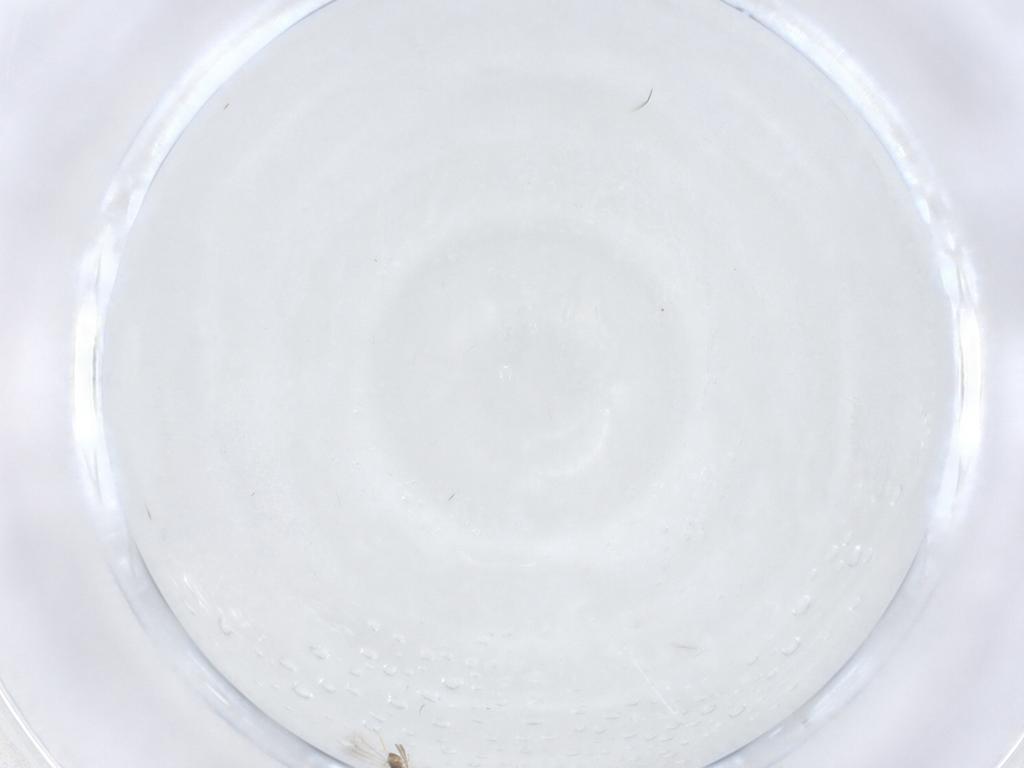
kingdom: Animalia
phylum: Arthropoda
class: Insecta
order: Hymenoptera
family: Mymaridae
